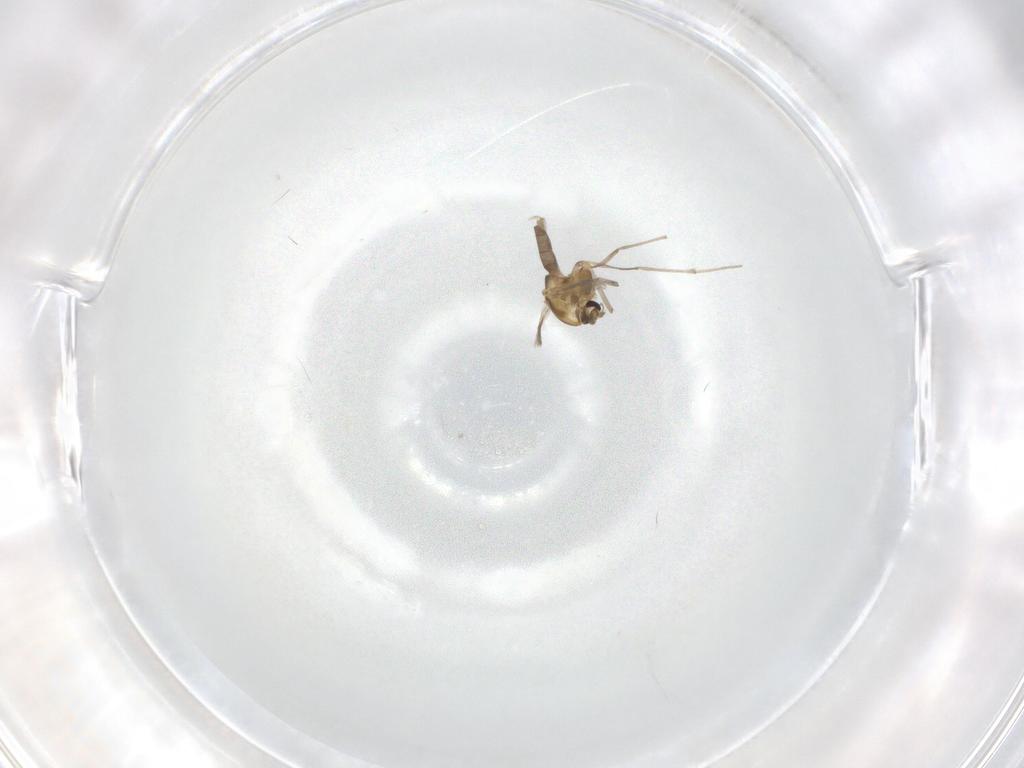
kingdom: Animalia
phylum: Arthropoda
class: Insecta
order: Diptera
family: Chironomidae
